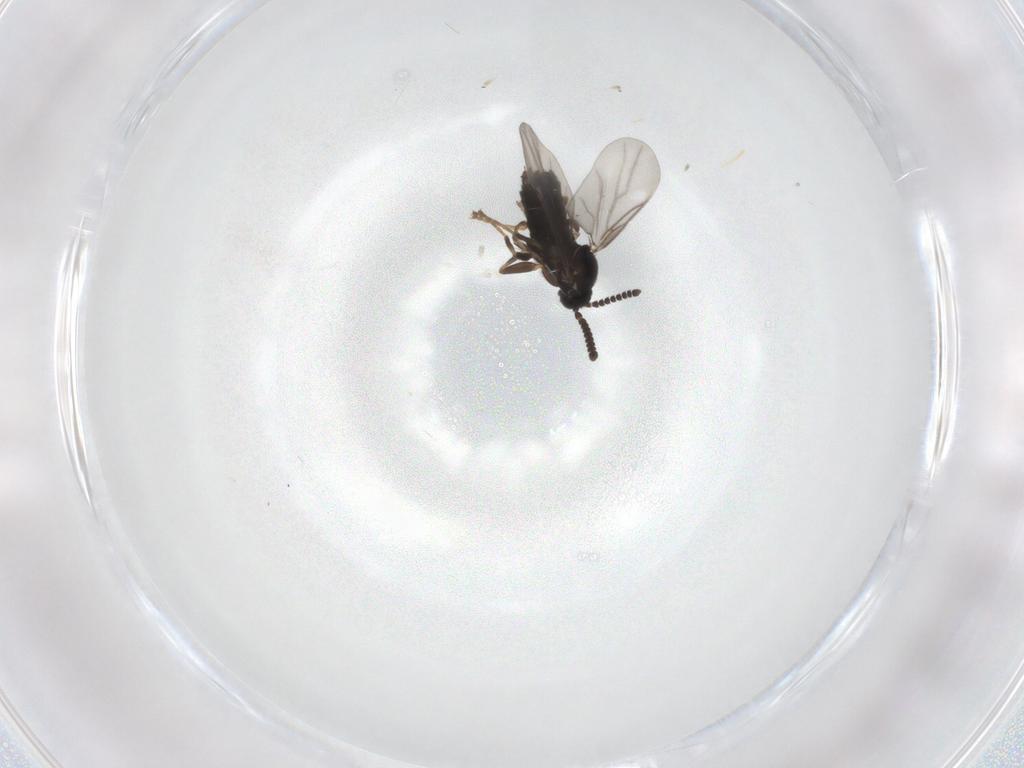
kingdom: Animalia
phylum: Arthropoda
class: Insecta
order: Diptera
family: Scatopsidae
